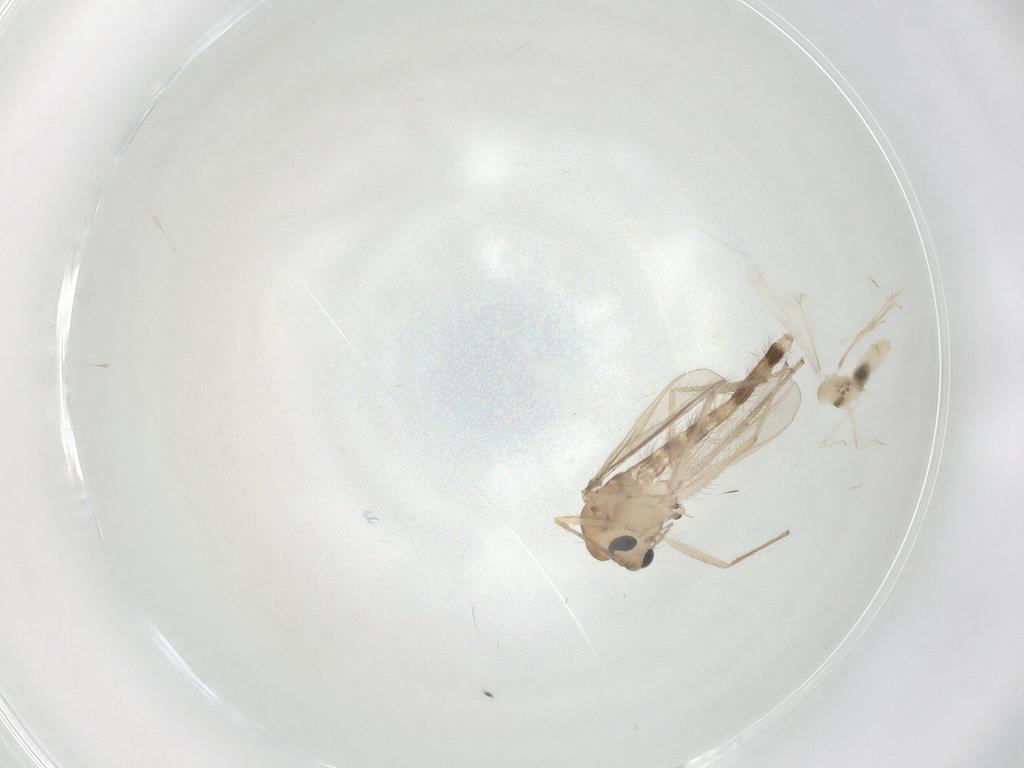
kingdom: Animalia
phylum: Arthropoda
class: Insecta
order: Diptera
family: Chironomidae
